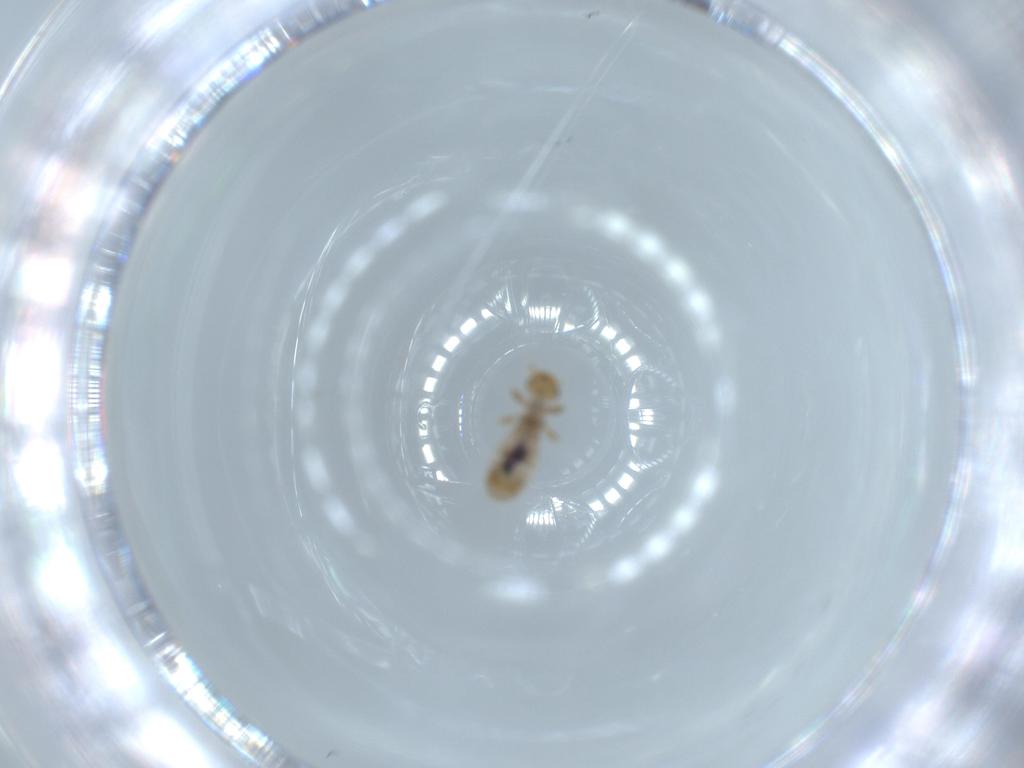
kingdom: Animalia
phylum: Arthropoda
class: Insecta
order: Psocodea
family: Liposcelididae
